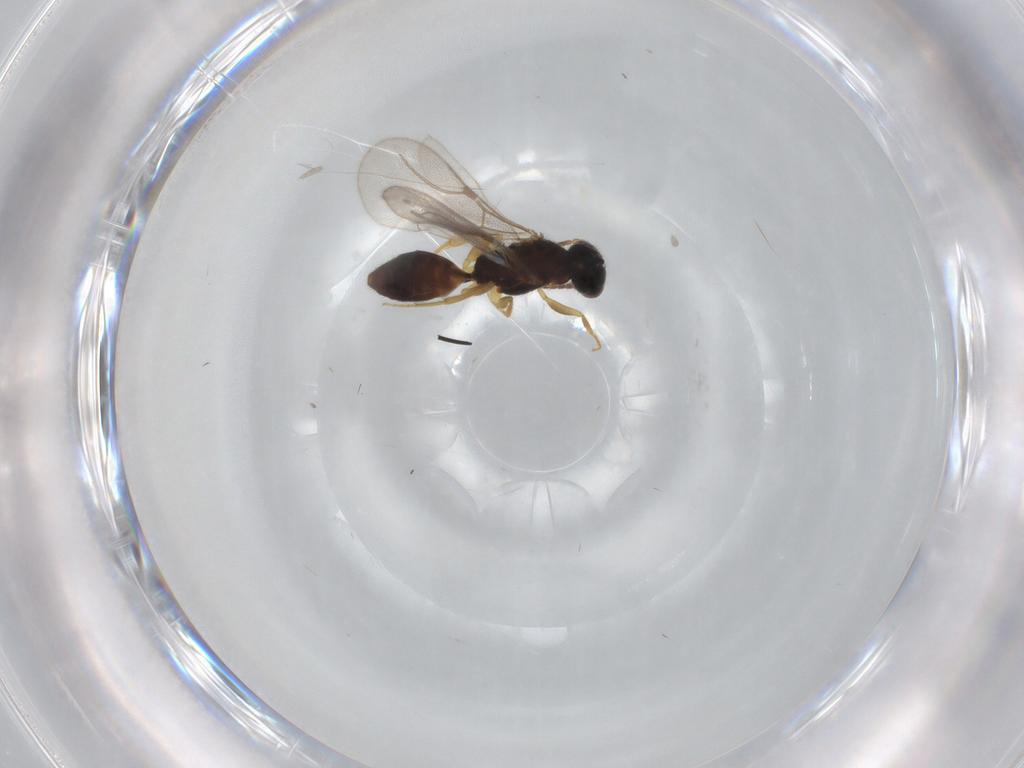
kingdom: Animalia
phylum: Arthropoda
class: Insecta
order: Hymenoptera
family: Bethylidae
